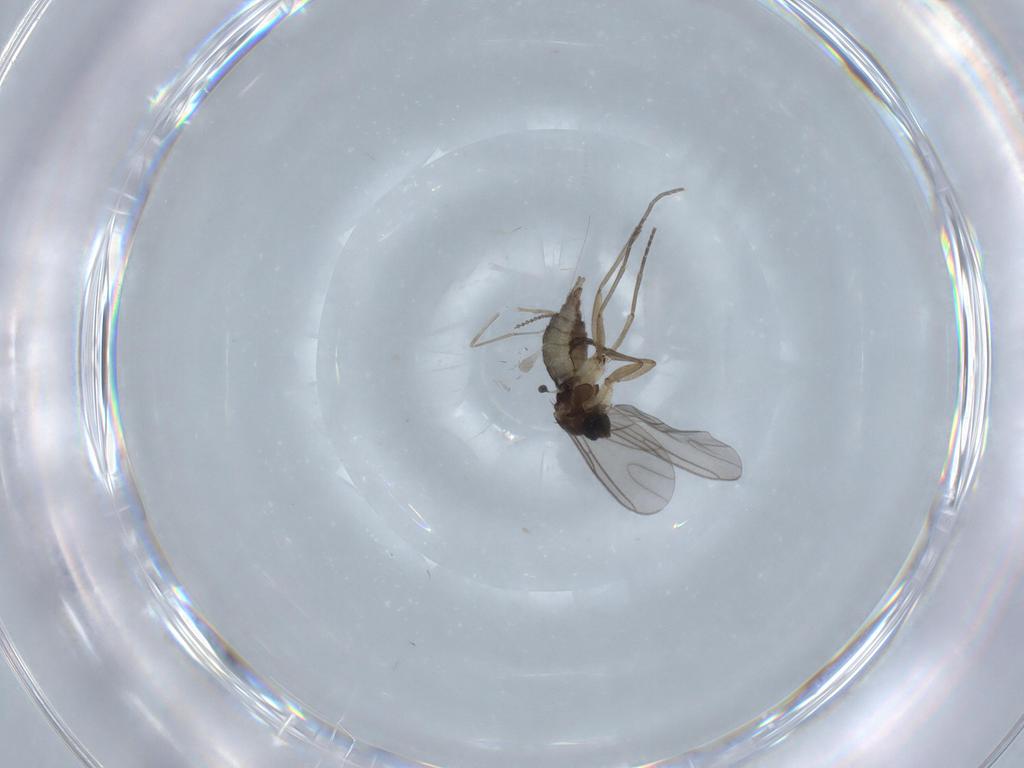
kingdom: Animalia
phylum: Arthropoda
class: Insecta
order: Diptera
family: Sciaridae
